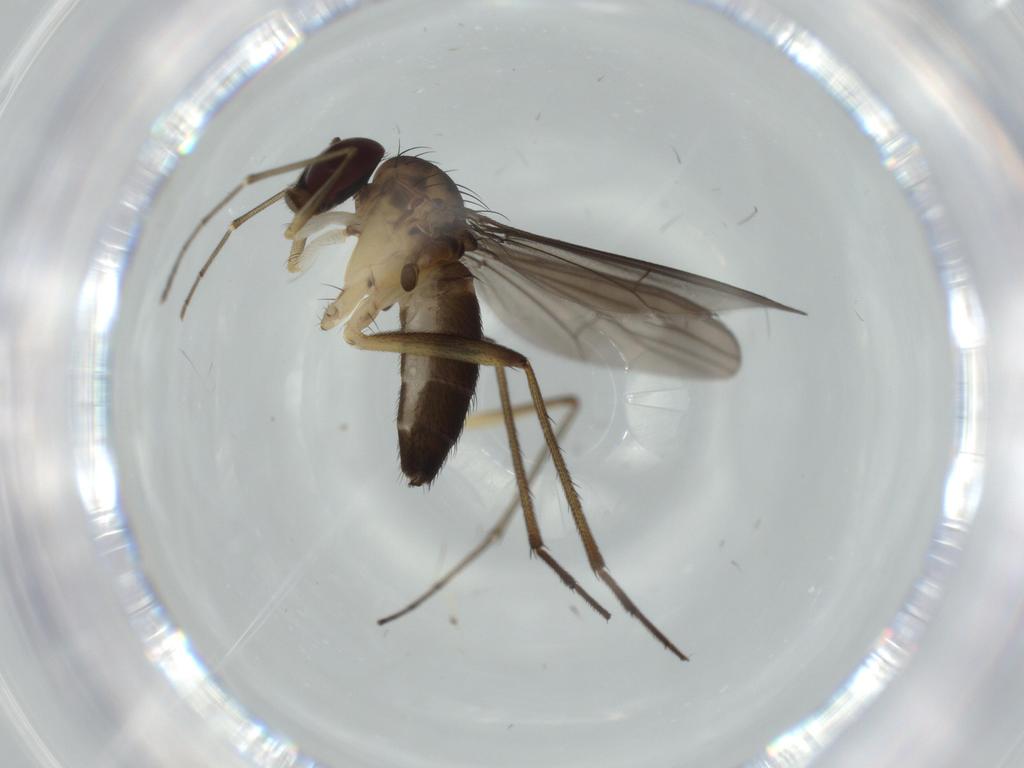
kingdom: Animalia
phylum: Arthropoda
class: Insecta
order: Diptera
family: Dolichopodidae
